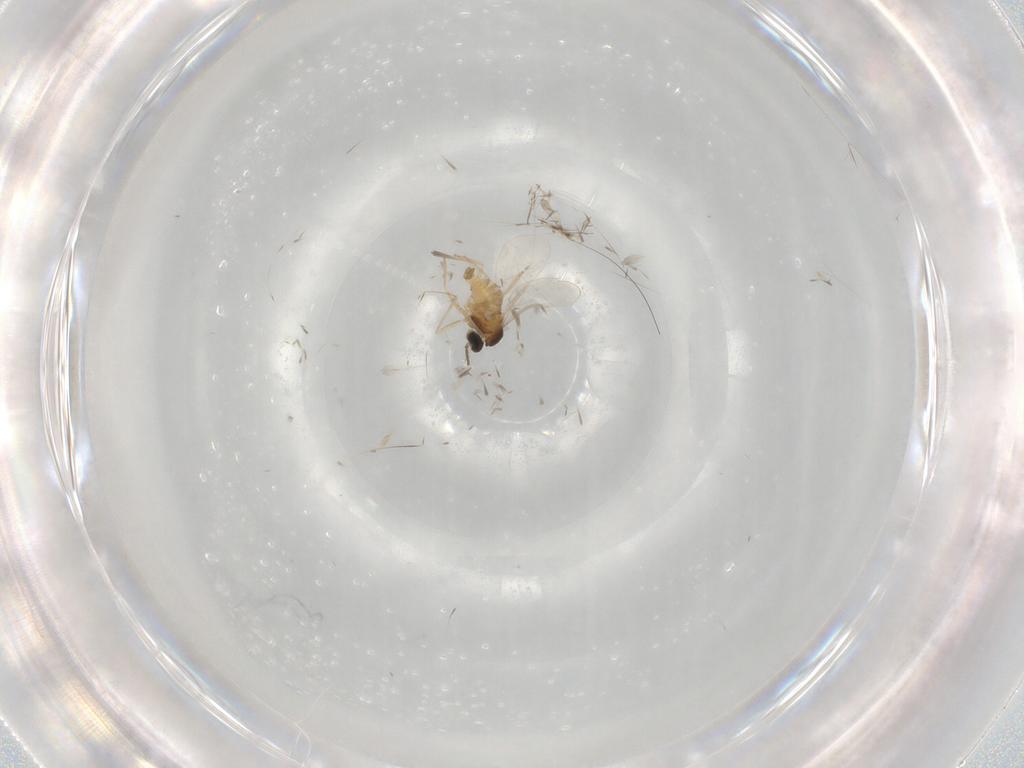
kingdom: Animalia
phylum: Arthropoda
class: Insecta
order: Diptera
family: Cecidomyiidae
